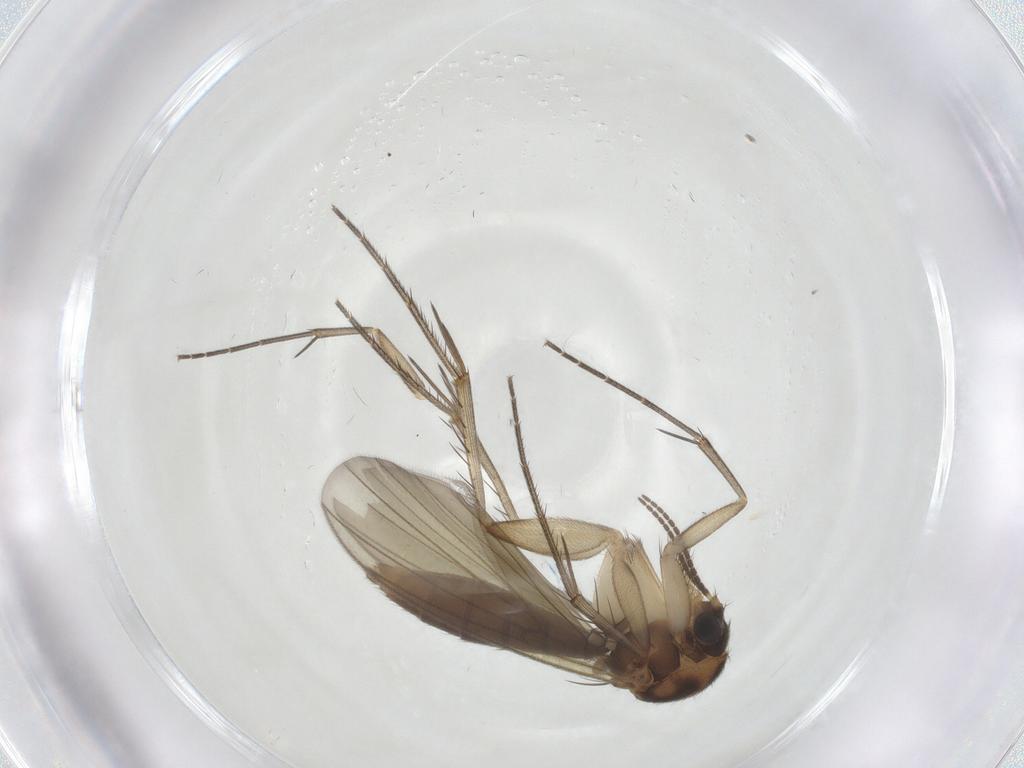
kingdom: Animalia
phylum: Arthropoda
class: Insecta
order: Diptera
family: Mycetophilidae
